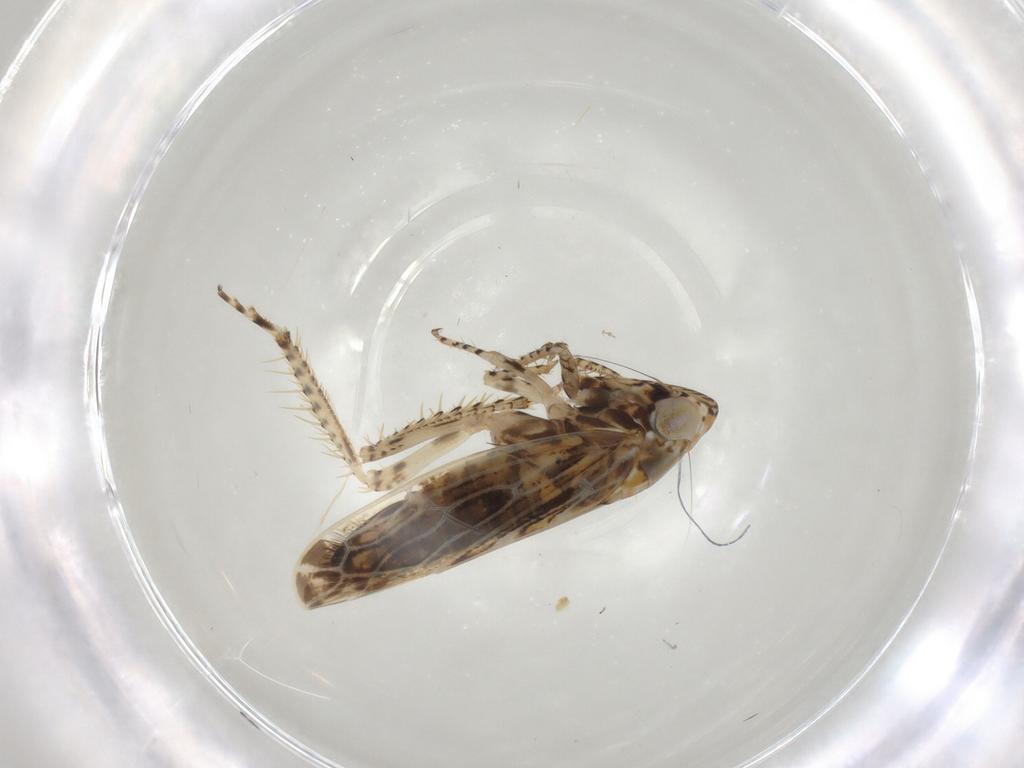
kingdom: Animalia
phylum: Arthropoda
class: Insecta
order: Hemiptera
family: Cicadellidae
